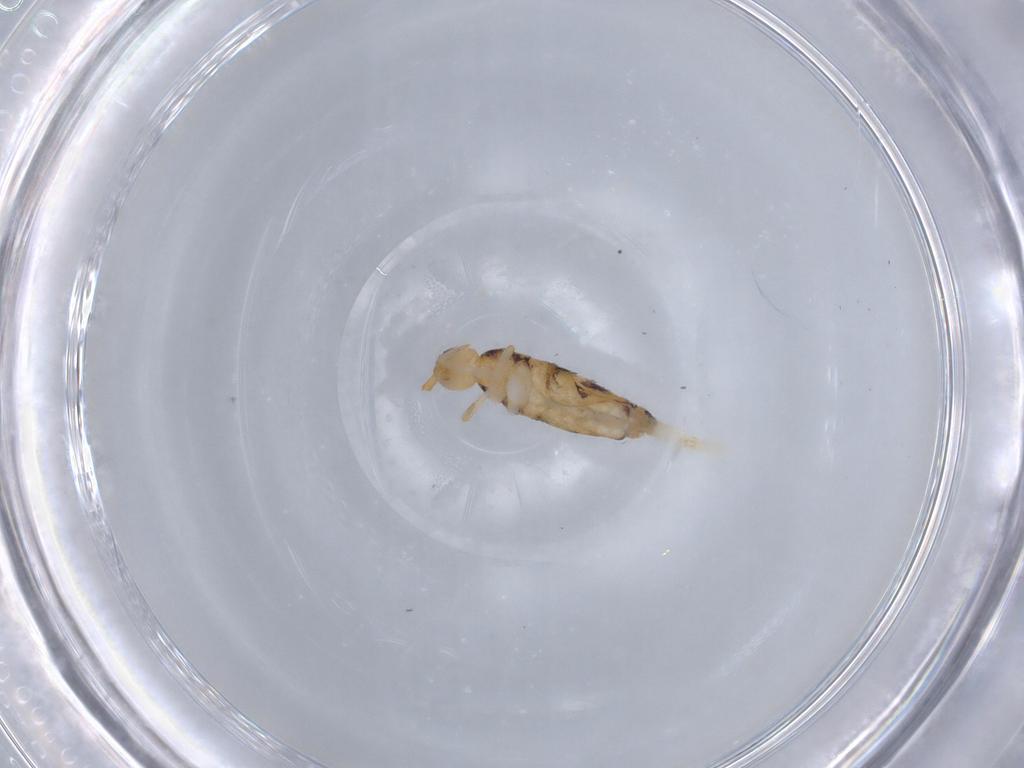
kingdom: Animalia
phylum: Arthropoda
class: Collembola
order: Entomobryomorpha
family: Entomobryidae
